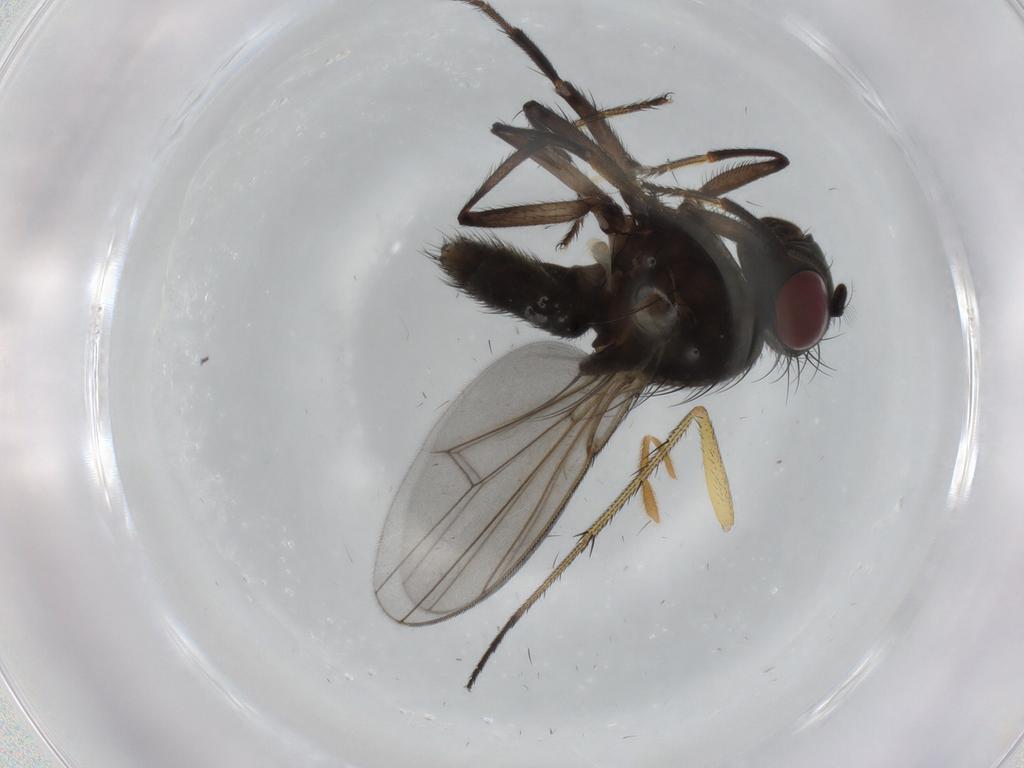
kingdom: Animalia
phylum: Arthropoda
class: Insecta
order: Diptera
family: Ephydridae
